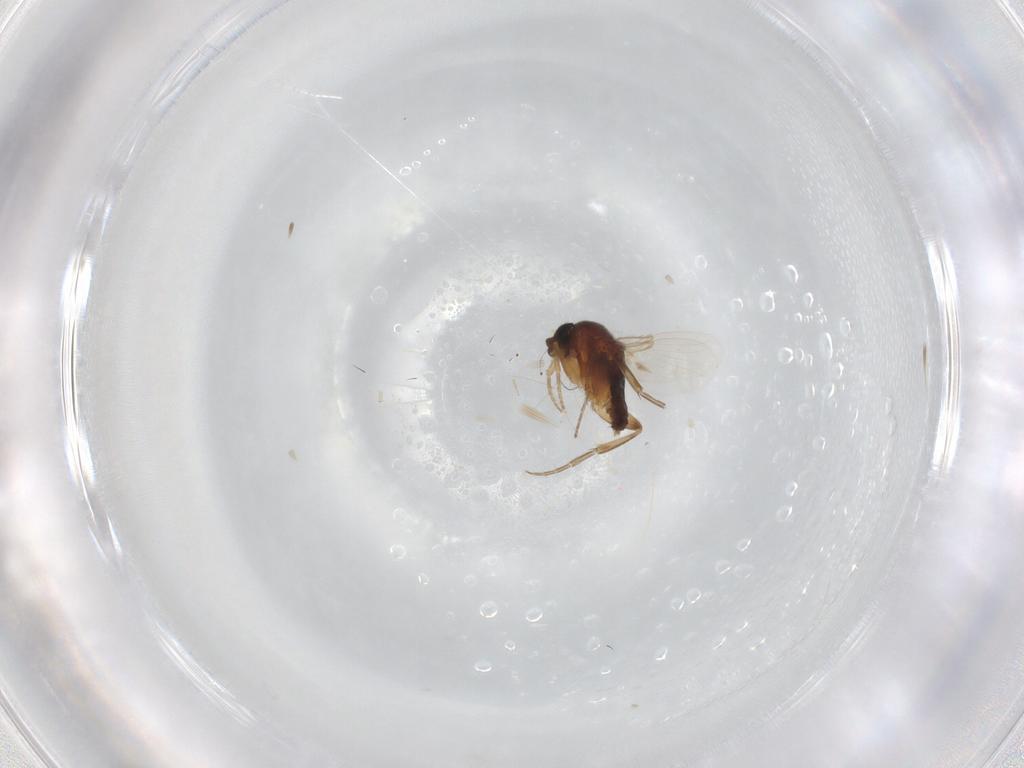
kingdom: Animalia
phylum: Arthropoda
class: Insecta
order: Diptera
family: Phoridae
